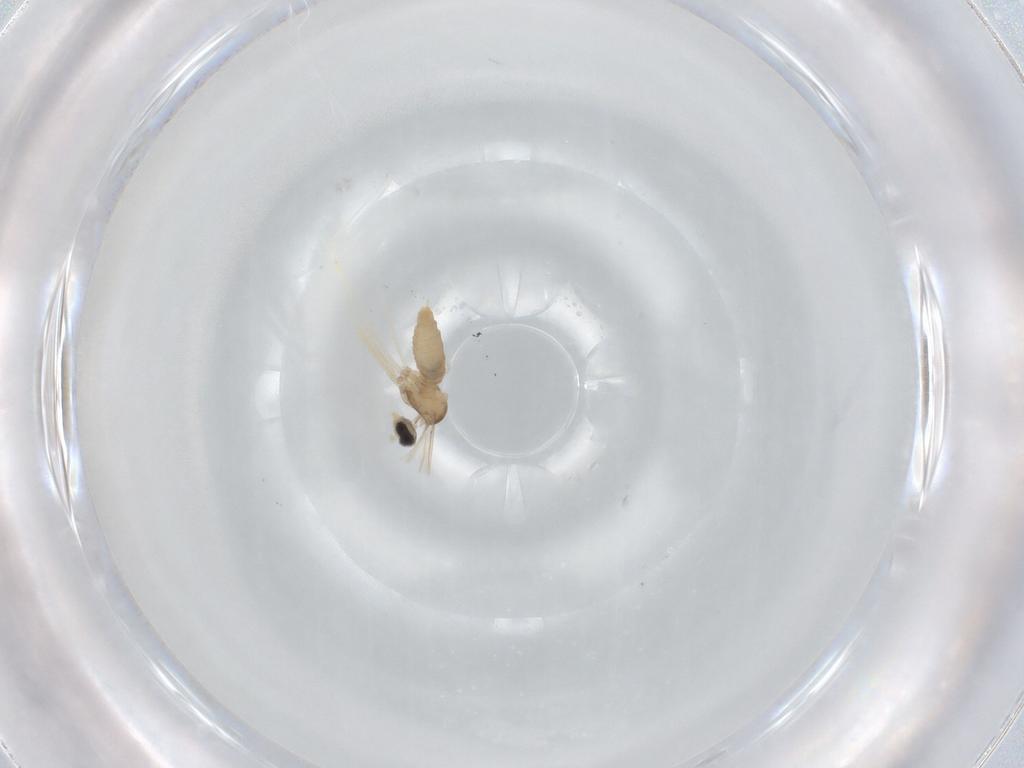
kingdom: Animalia
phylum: Arthropoda
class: Insecta
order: Diptera
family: Cecidomyiidae
